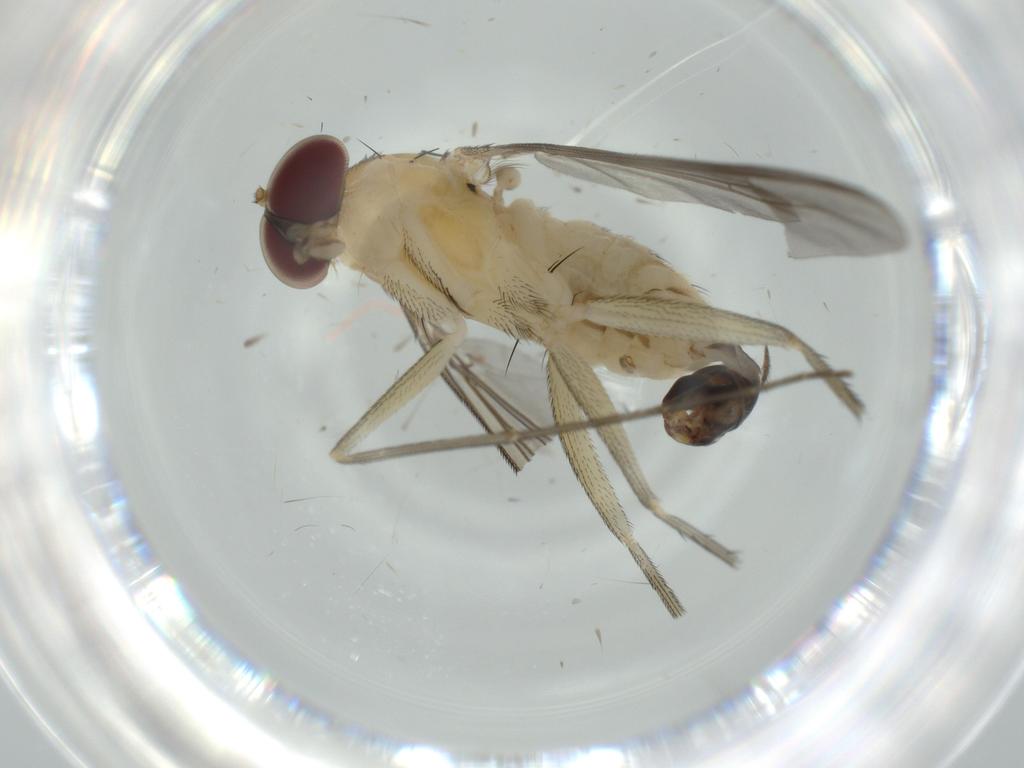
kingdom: Animalia
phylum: Arthropoda
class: Insecta
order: Diptera
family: Dolichopodidae
